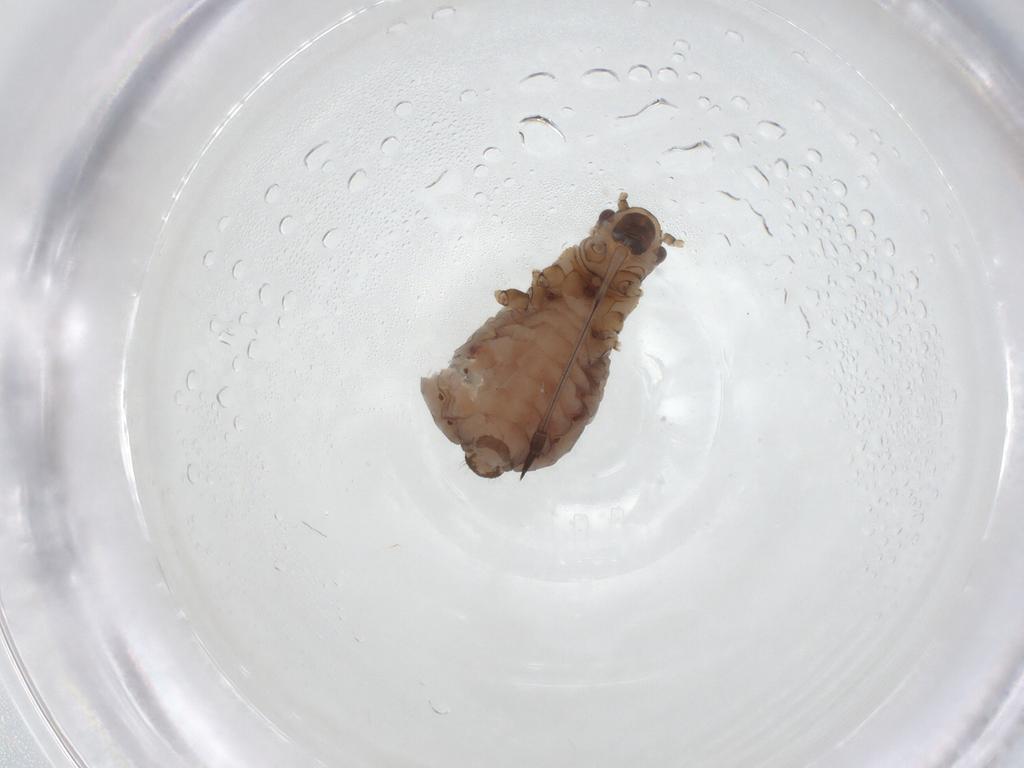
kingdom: Animalia
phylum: Arthropoda
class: Insecta
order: Hemiptera
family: Aphididae
